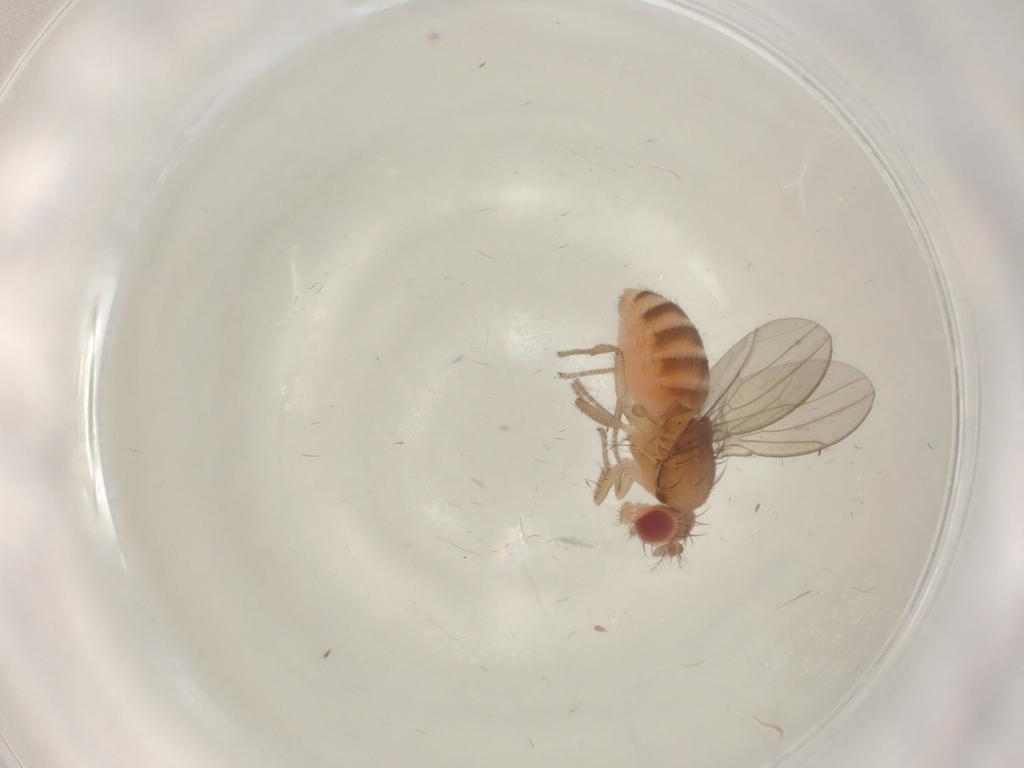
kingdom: Animalia
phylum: Arthropoda
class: Insecta
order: Diptera
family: Drosophilidae
